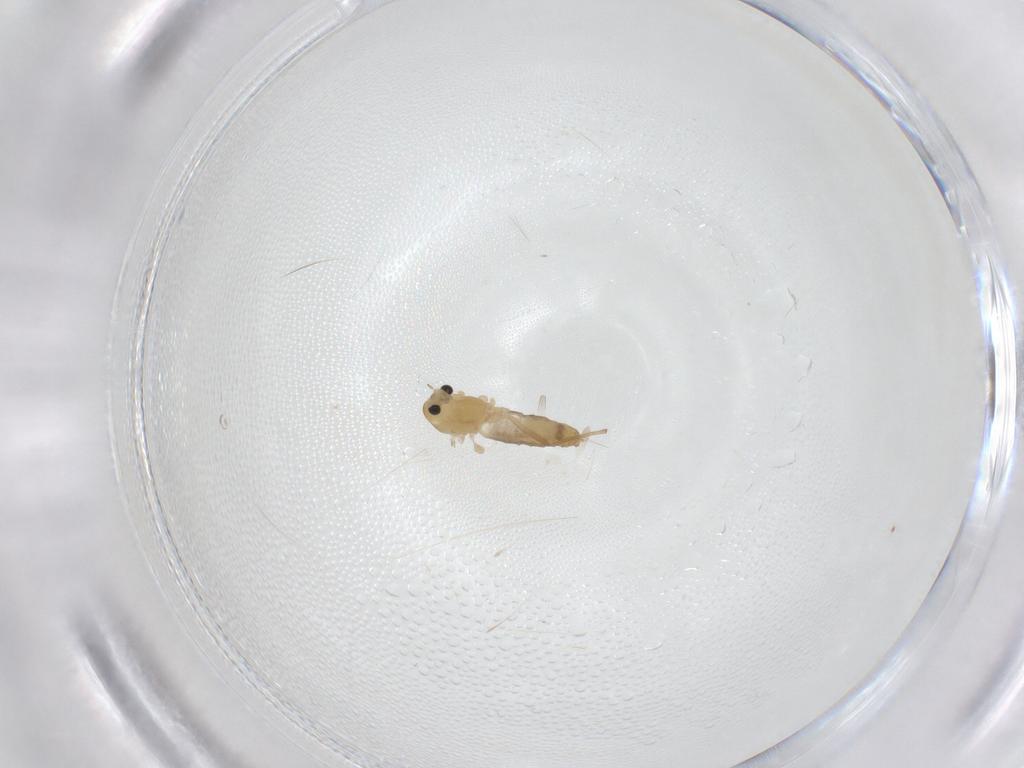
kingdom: Animalia
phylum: Arthropoda
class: Insecta
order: Diptera
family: Chironomidae
